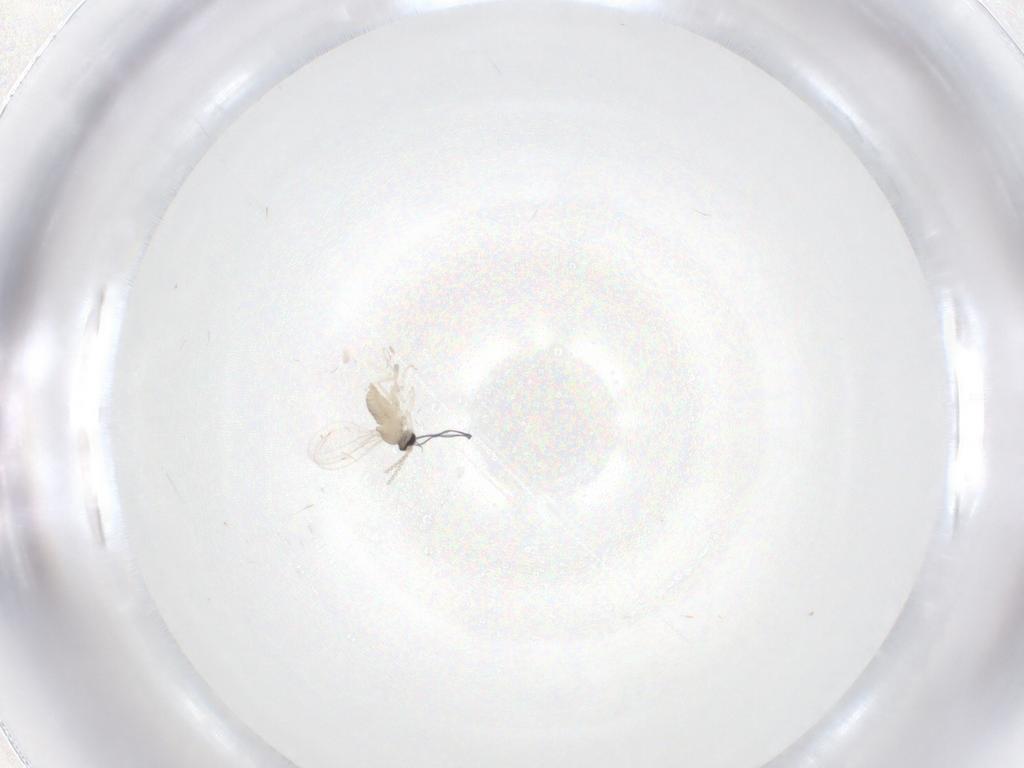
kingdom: Animalia
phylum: Arthropoda
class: Insecta
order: Diptera
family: Cecidomyiidae
